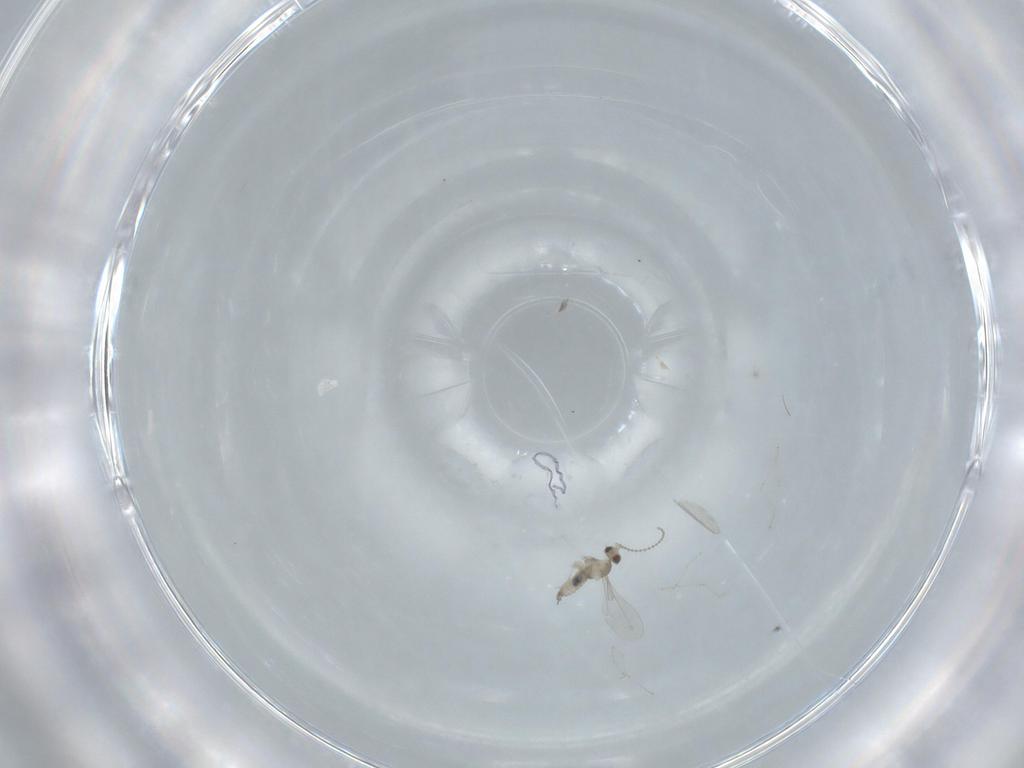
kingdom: Animalia
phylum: Arthropoda
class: Insecta
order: Diptera
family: Cecidomyiidae
